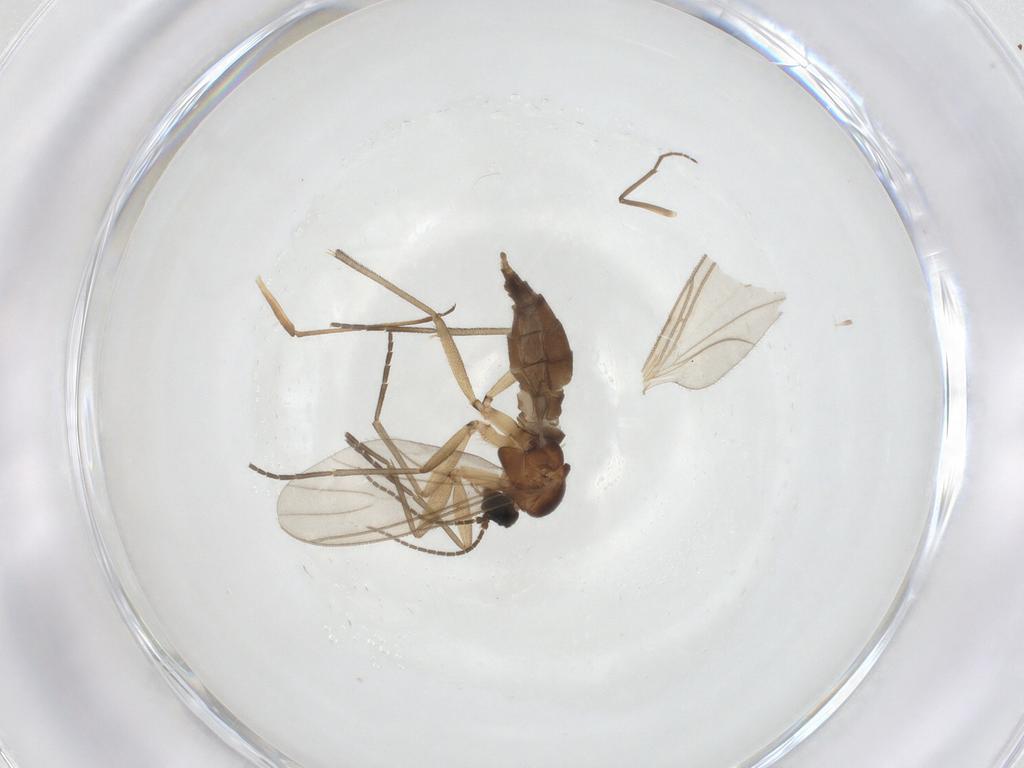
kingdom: Animalia
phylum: Arthropoda
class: Insecta
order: Diptera
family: Sciaridae
